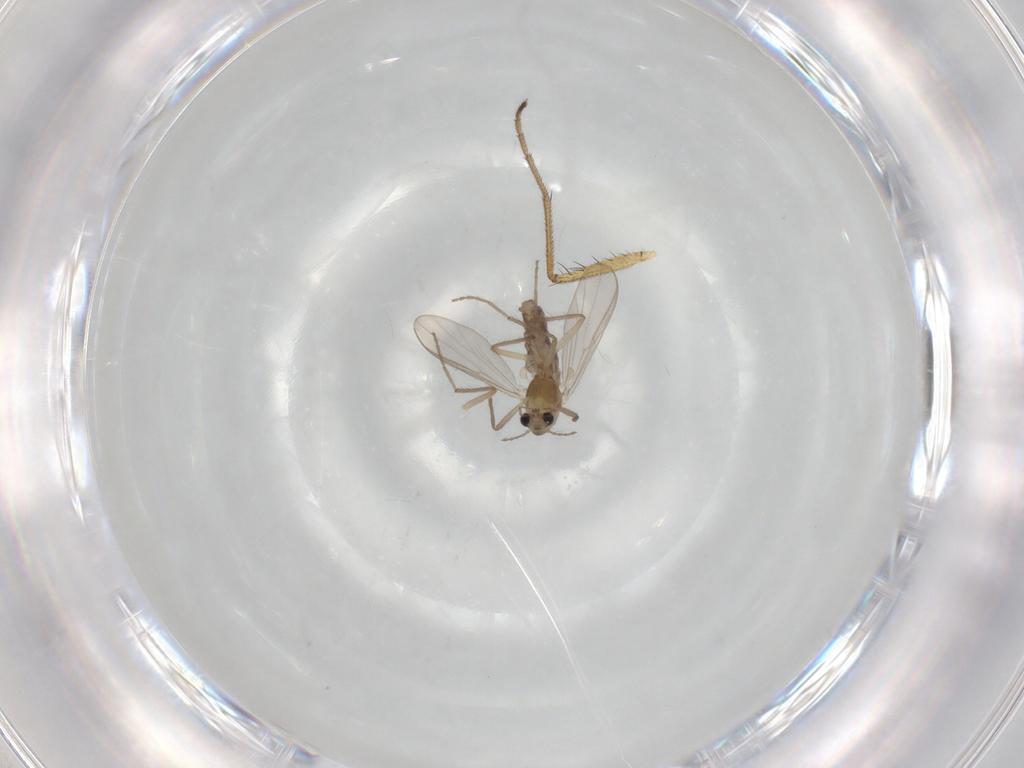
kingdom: Animalia
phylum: Arthropoda
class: Insecta
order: Diptera
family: Chironomidae
